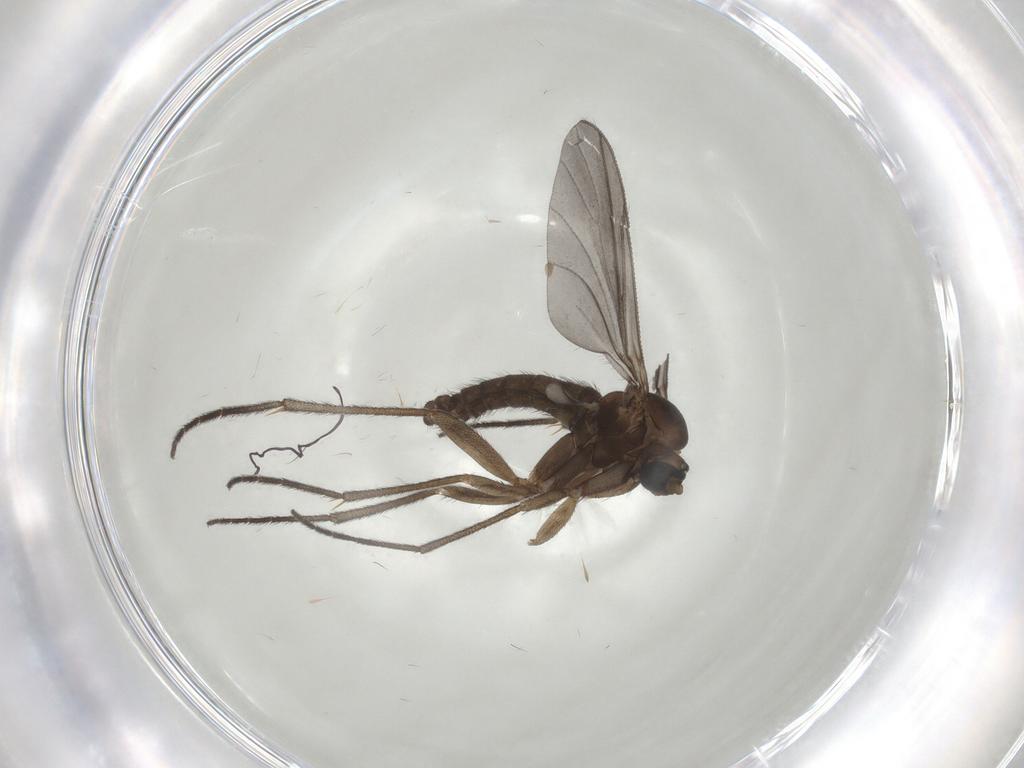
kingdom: Animalia
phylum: Arthropoda
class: Insecta
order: Diptera
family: Sciaridae
